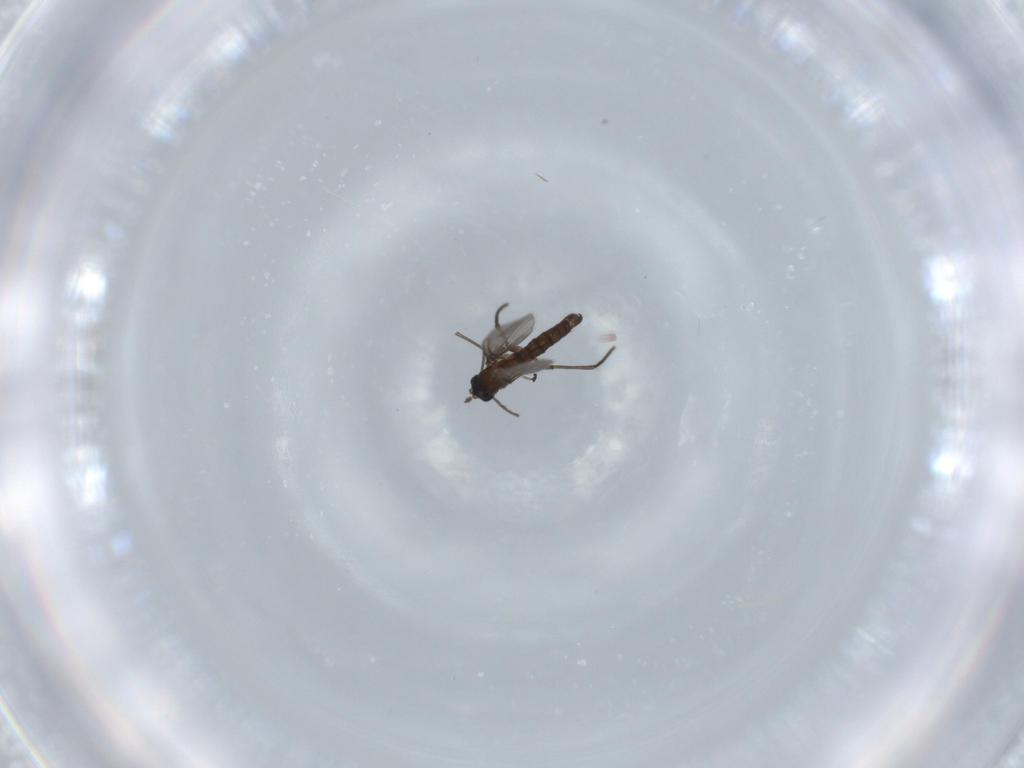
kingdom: Animalia
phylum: Arthropoda
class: Insecta
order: Diptera
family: Sciaridae
